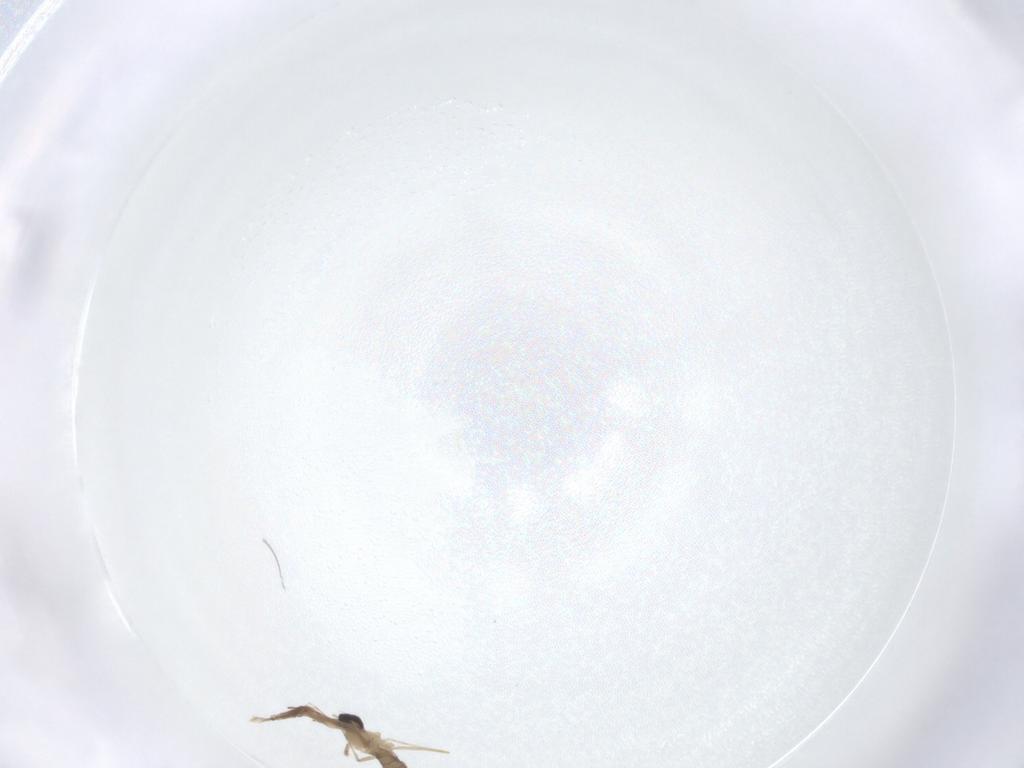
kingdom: Animalia
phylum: Arthropoda
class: Insecta
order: Diptera
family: Cecidomyiidae
